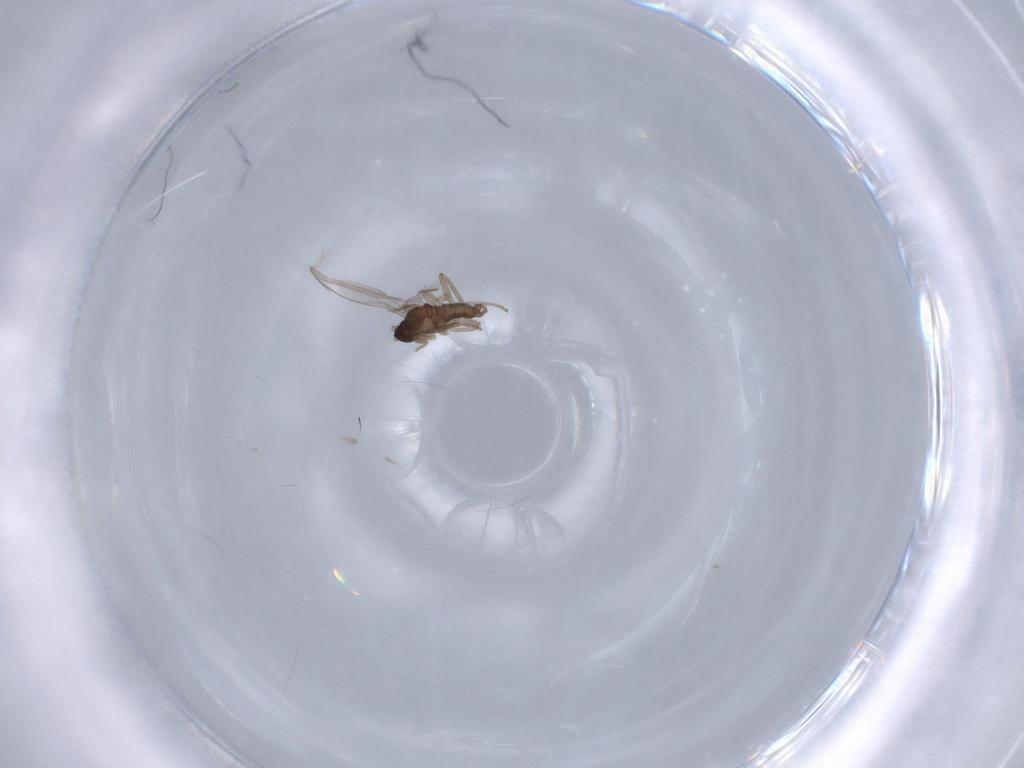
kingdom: Animalia
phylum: Arthropoda
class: Insecta
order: Diptera
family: Cecidomyiidae
